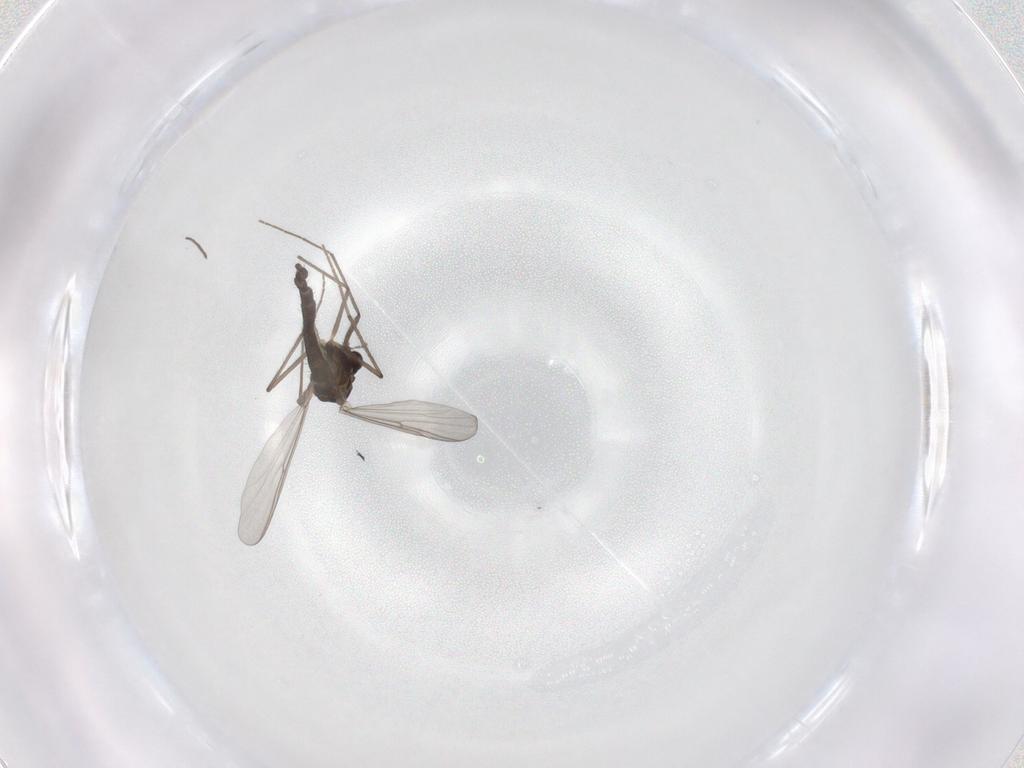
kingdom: Animalia
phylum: Arthropoda
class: Insecta
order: Diptera
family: Chironomidae
